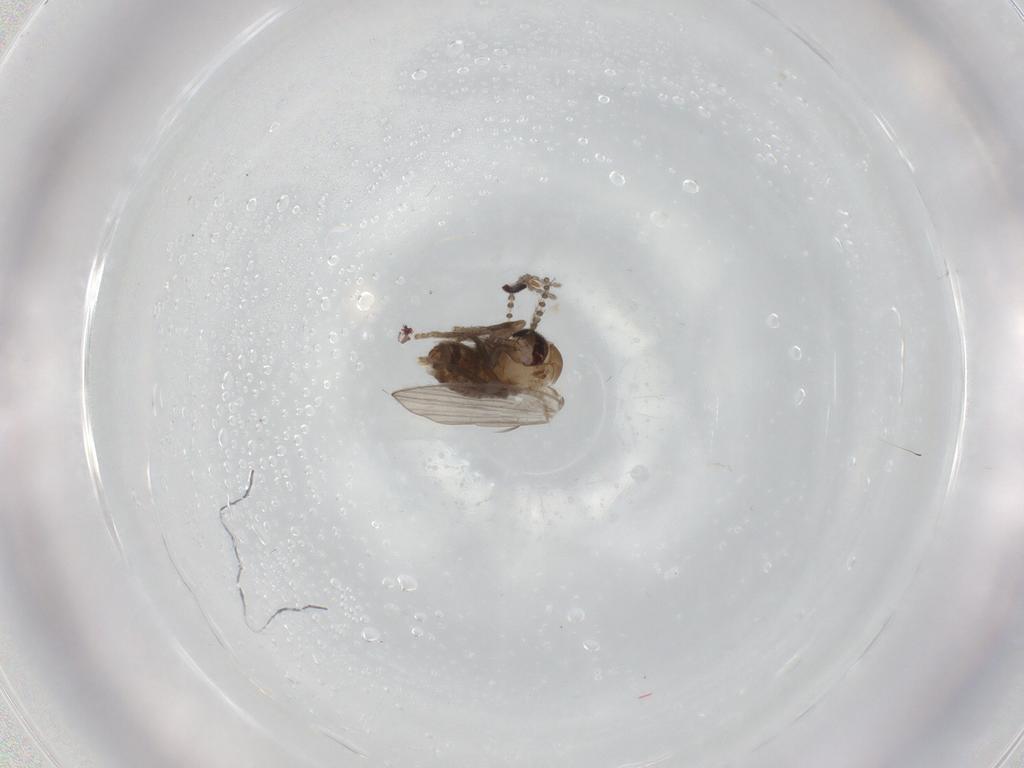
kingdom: Animalia
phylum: Arthropoda
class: Insecta
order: Diptera
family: Psychodidae
